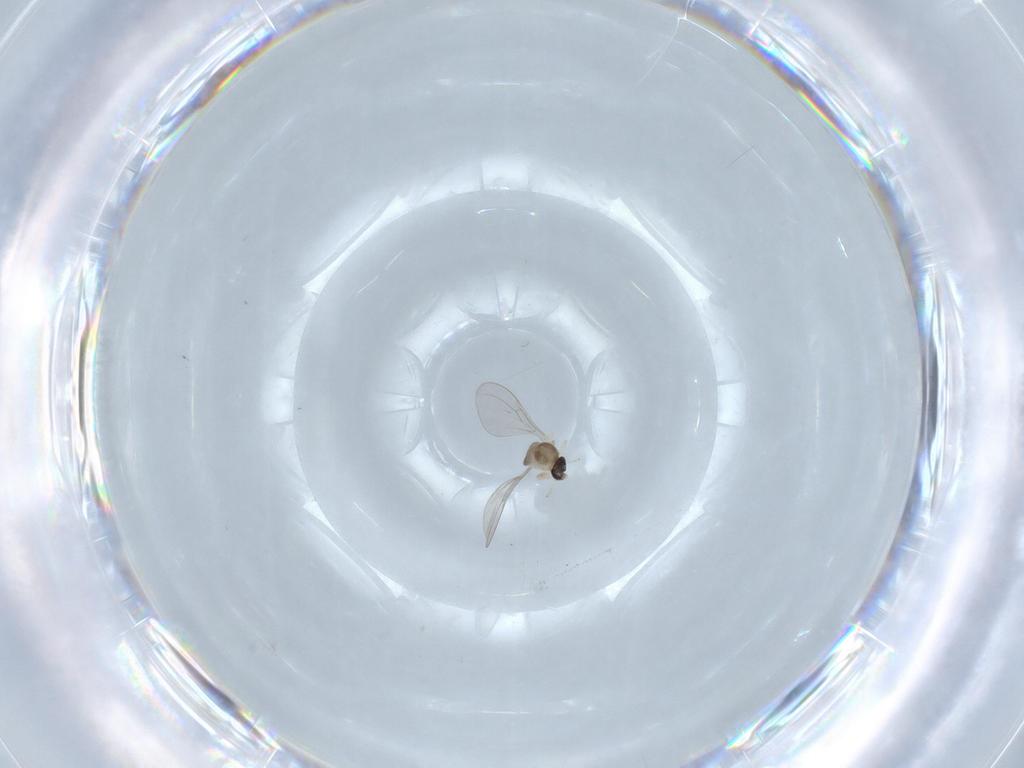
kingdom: Animalia
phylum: Arthropoda
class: Insecta
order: Diptera
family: Cecidomyiidae
